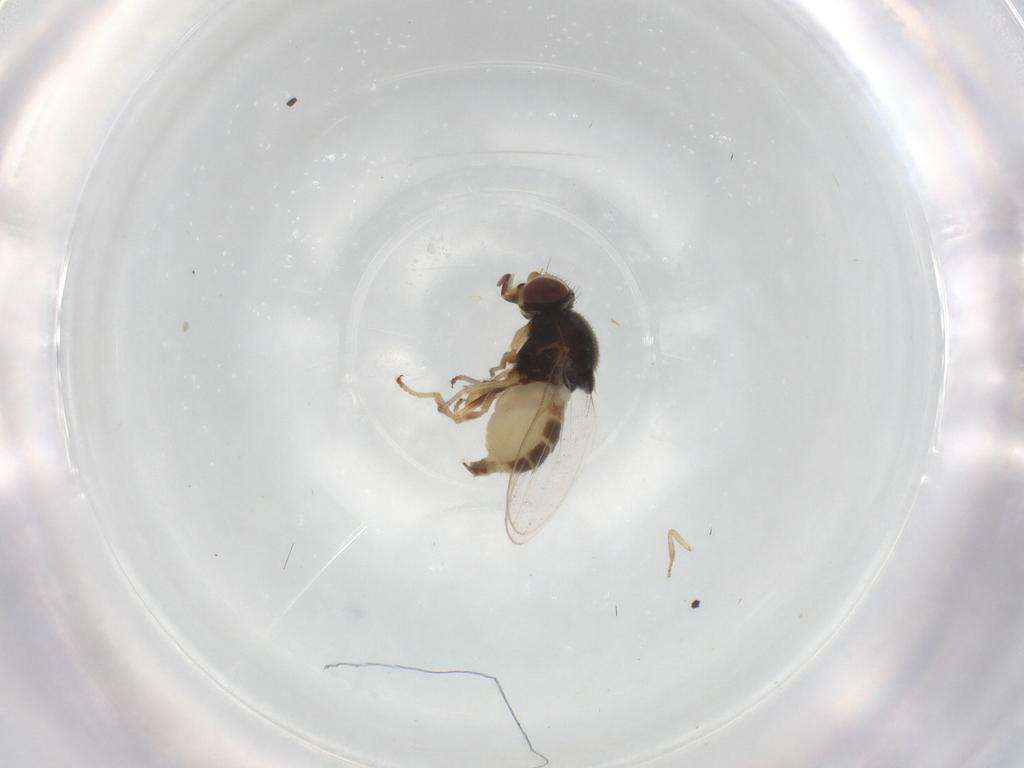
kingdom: Animalia
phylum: Arthropoda
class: Insecta
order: Diptera
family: Chloropidae
